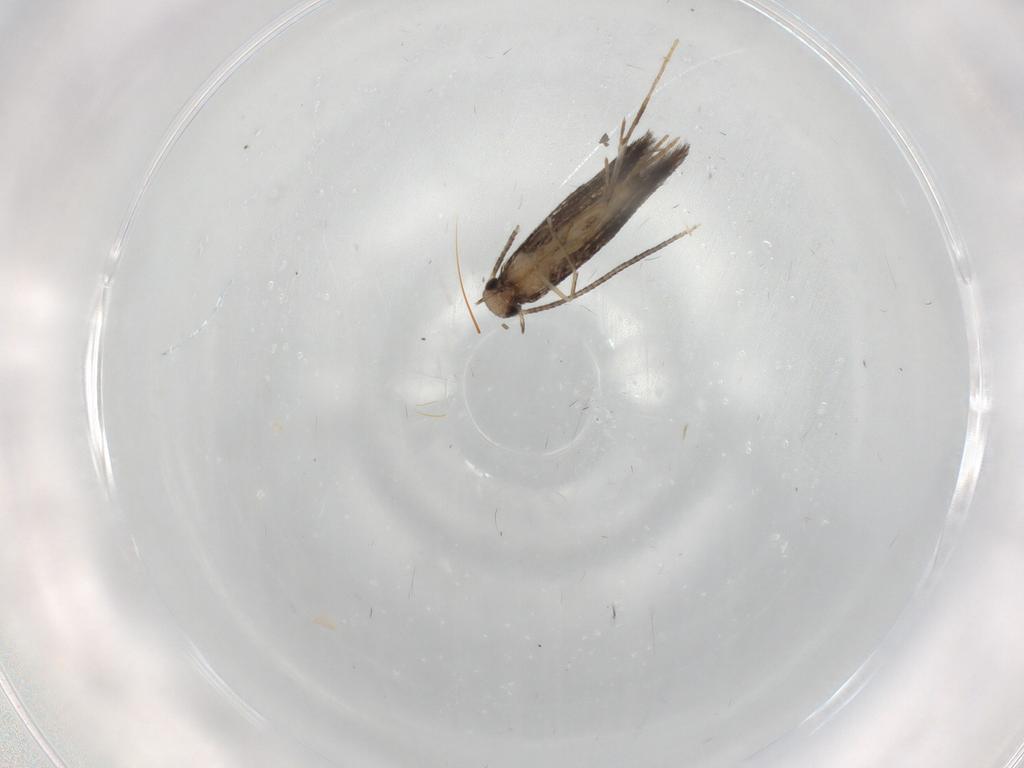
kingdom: Animalia
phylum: Arthropoda
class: Insecta
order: Lepidoptera
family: Gracillariidae
